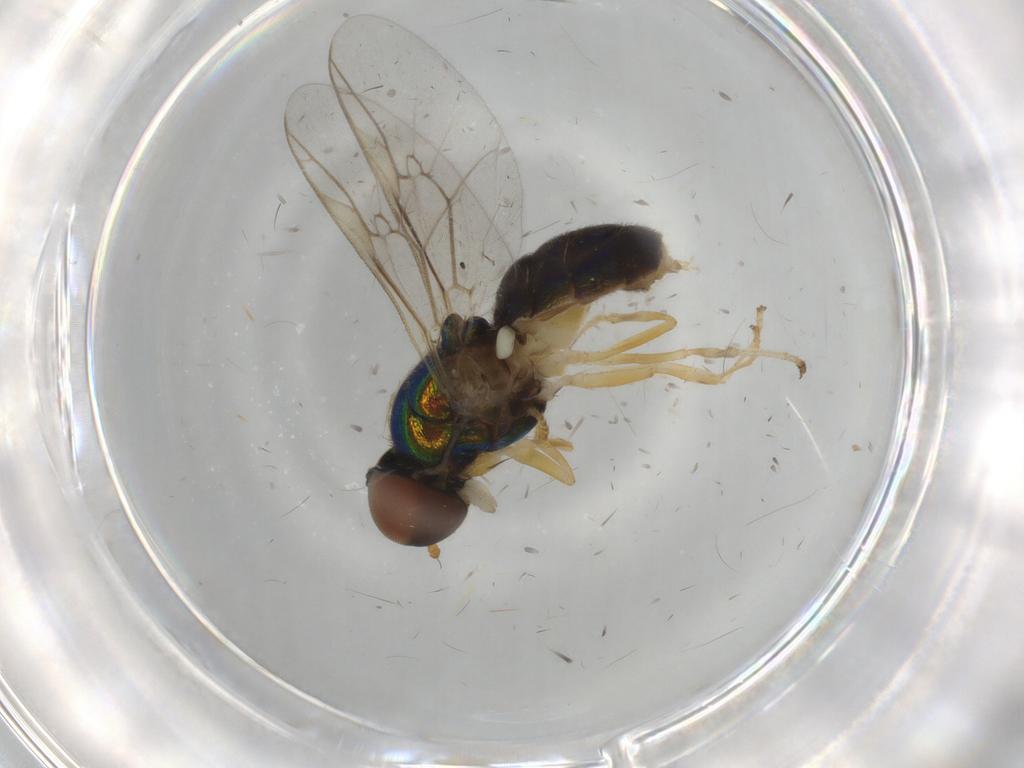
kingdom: Animalia
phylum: Arthropoda
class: Insecta
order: Diptera
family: Stratiomyidae
